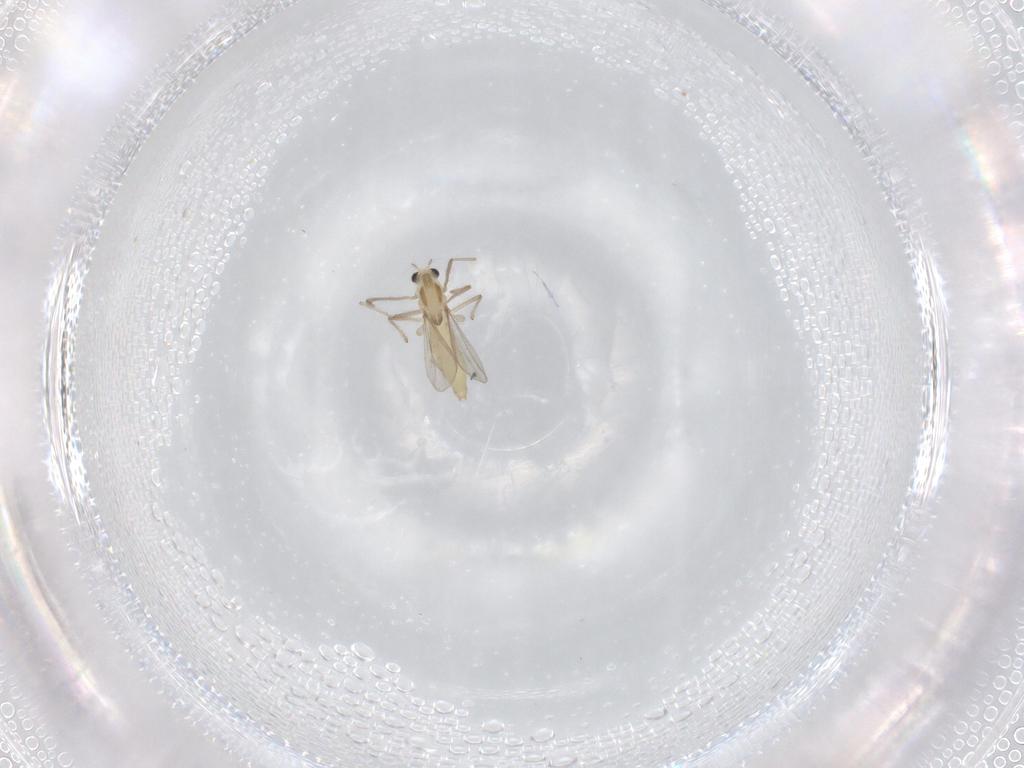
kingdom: Animalia
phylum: Arthropoda
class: Insecta
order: Diptera
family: Chironomidae
